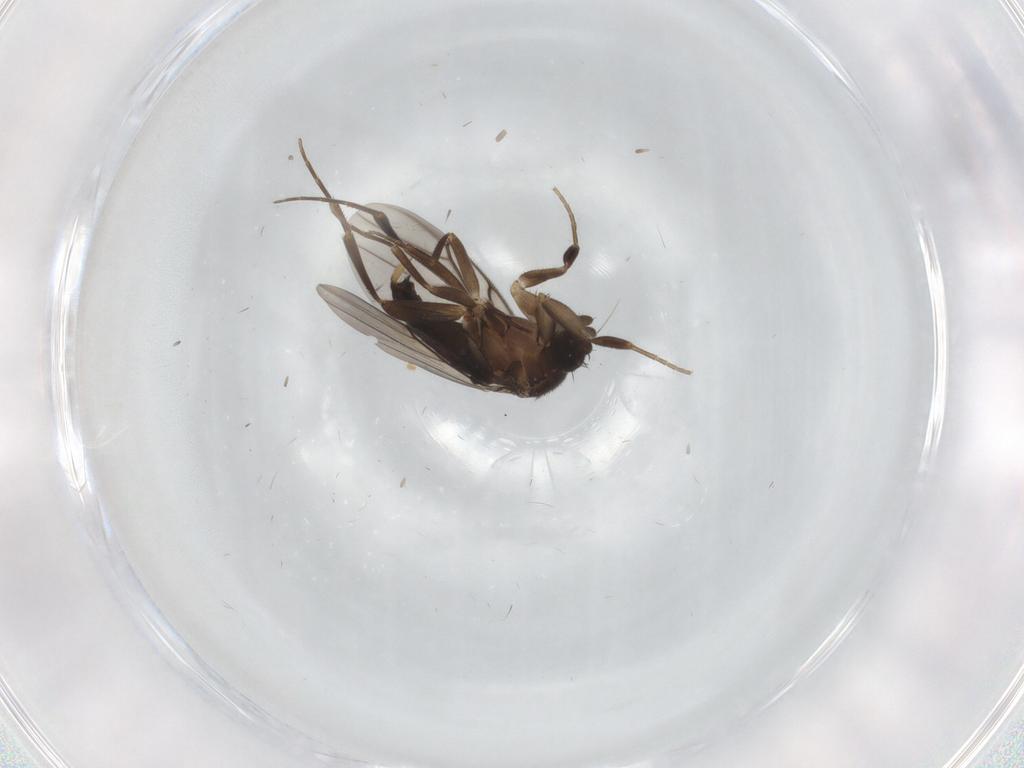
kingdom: Animalia
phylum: Arthropoda
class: Insecta
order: Diptera
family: Phoridae
